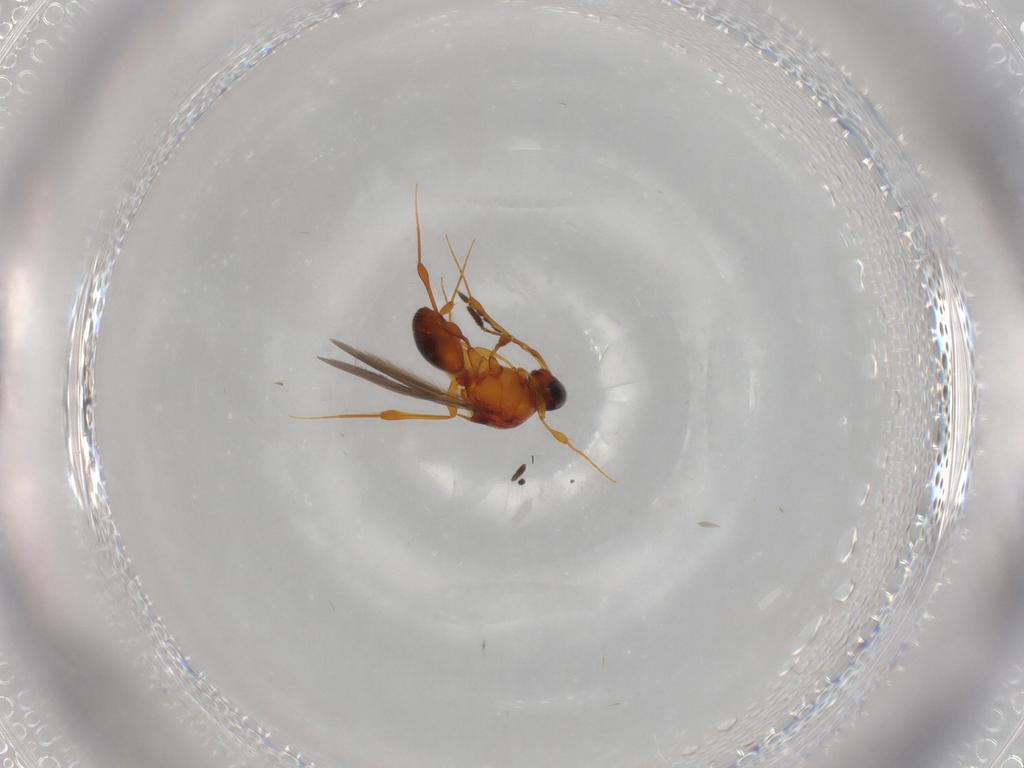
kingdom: Animalia
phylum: Arthropoda
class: Insecta
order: Hymenoptera
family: Platygastridae
